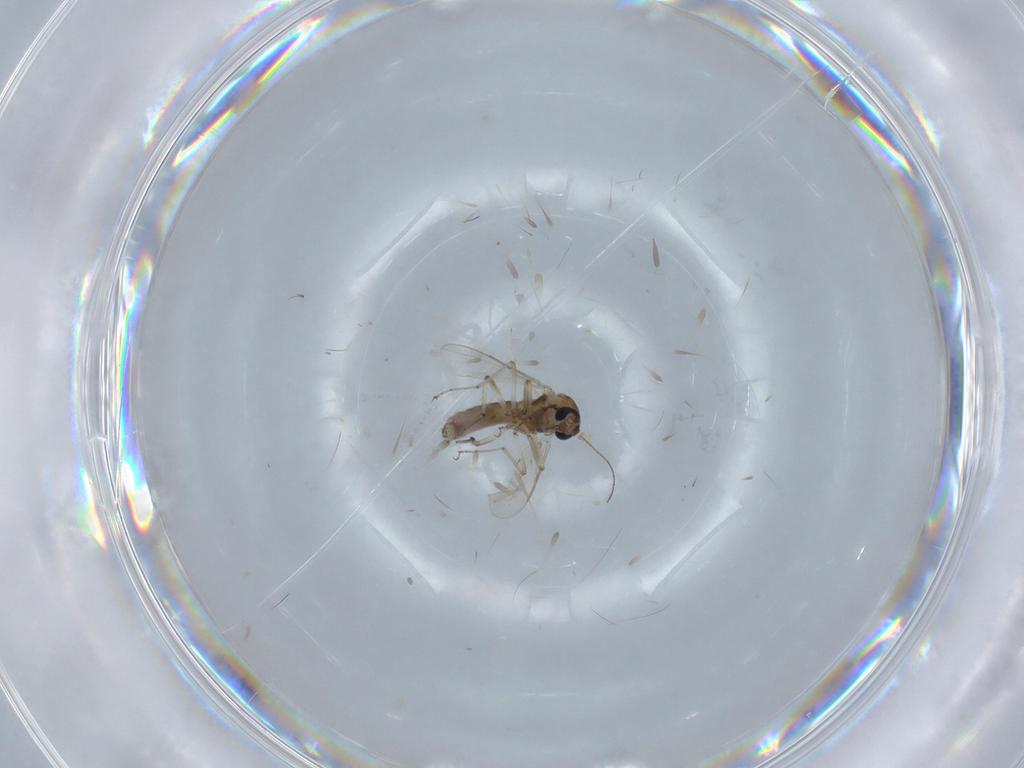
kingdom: Animalia
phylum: Arthropoda
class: Insecta
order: Diptera
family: Ceratopogonidae
